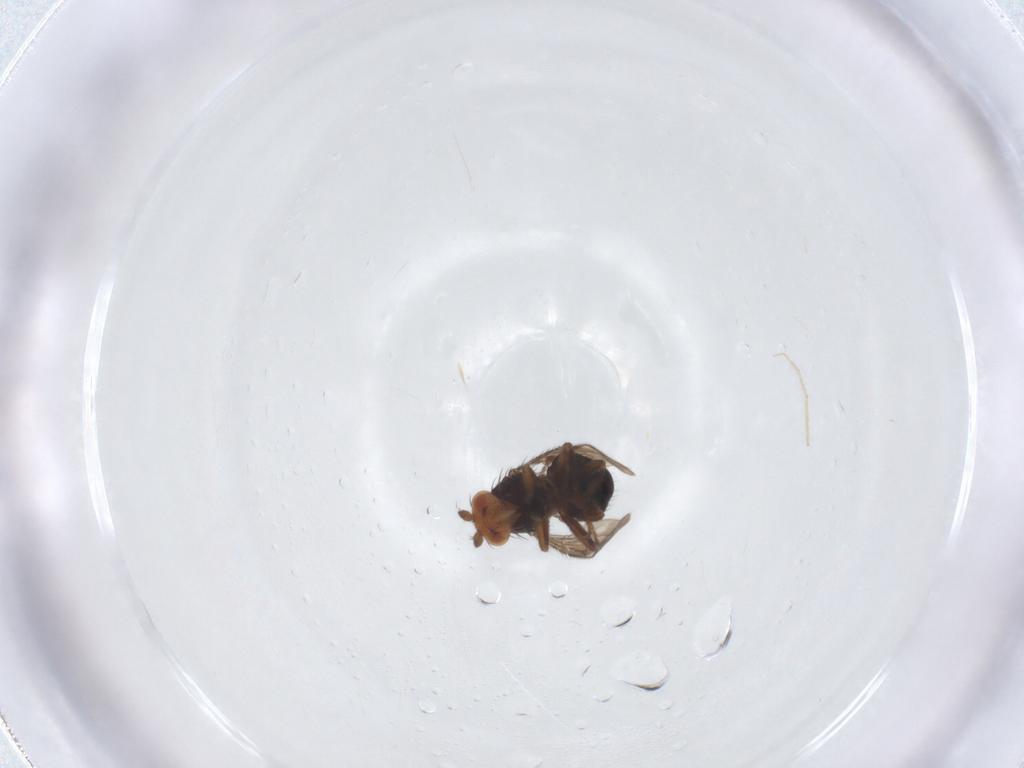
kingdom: Animalia
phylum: Arthropoda
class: Insecta
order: Diptera
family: Sphaeroceridae
